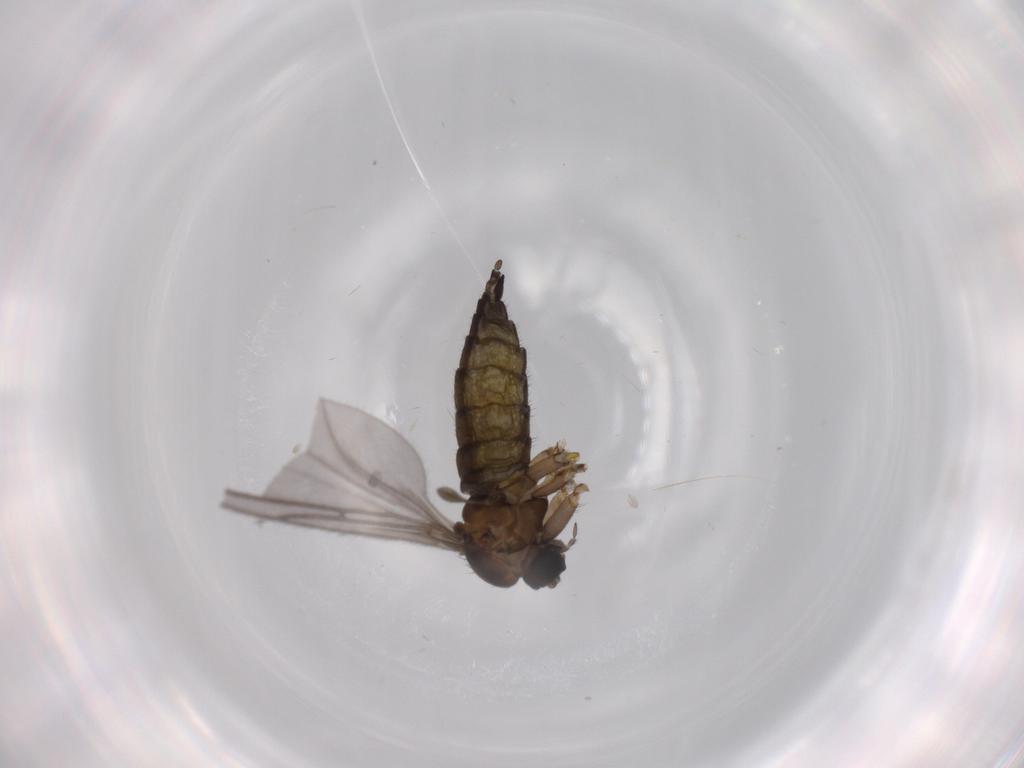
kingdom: Animalia
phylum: Arthropoda
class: Insecta
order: Diptera
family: Sciaridae
